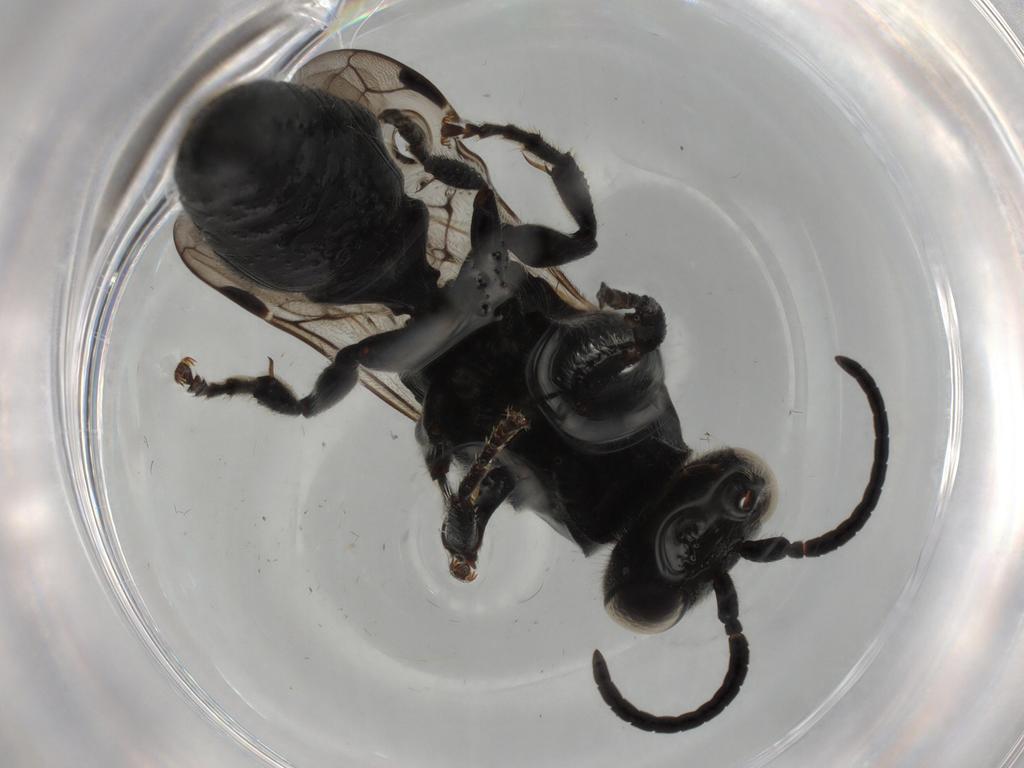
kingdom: Animalia
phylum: Arthropoda
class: Insecta
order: Hymenoptera
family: Tiphiidae
